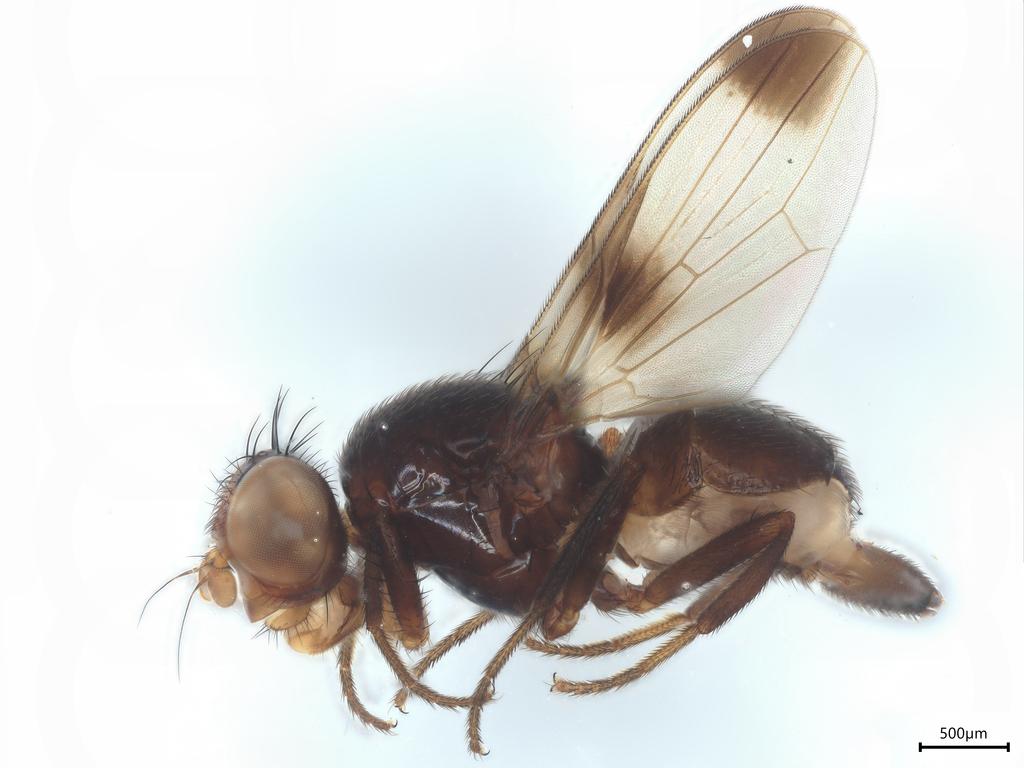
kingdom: Animalia
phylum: Arthropoda
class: Insecta
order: Diptera
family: Ulidiidae
